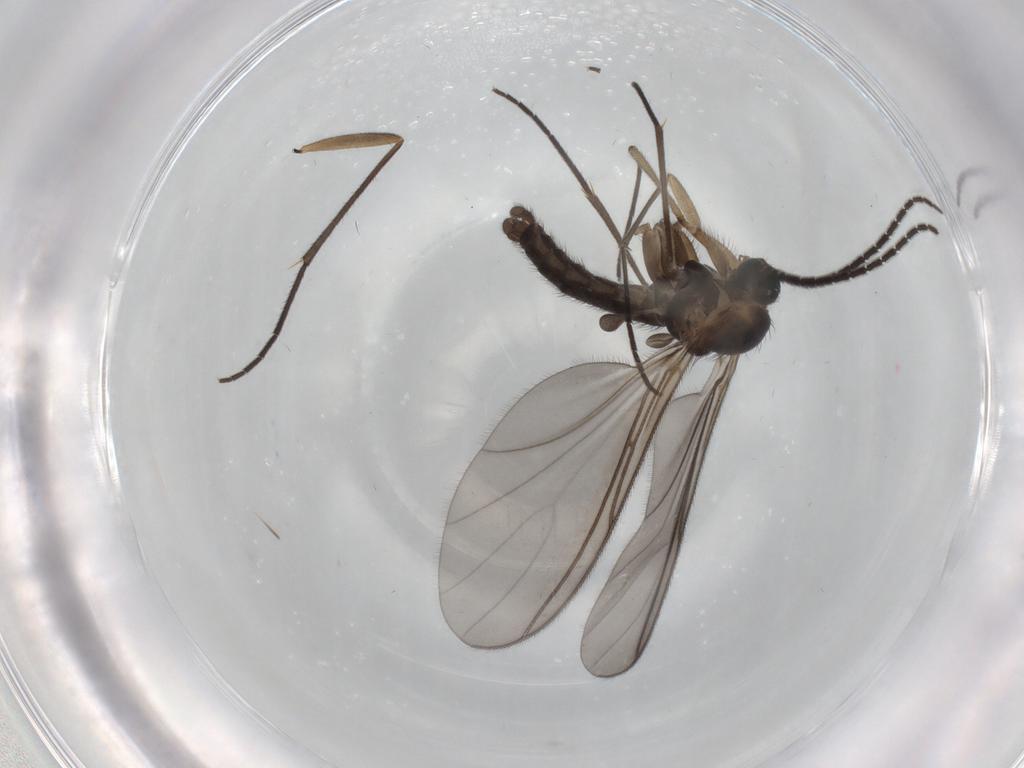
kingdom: Animalia
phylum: Arthropoda
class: Insecta
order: Diptera
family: Sciaridae
